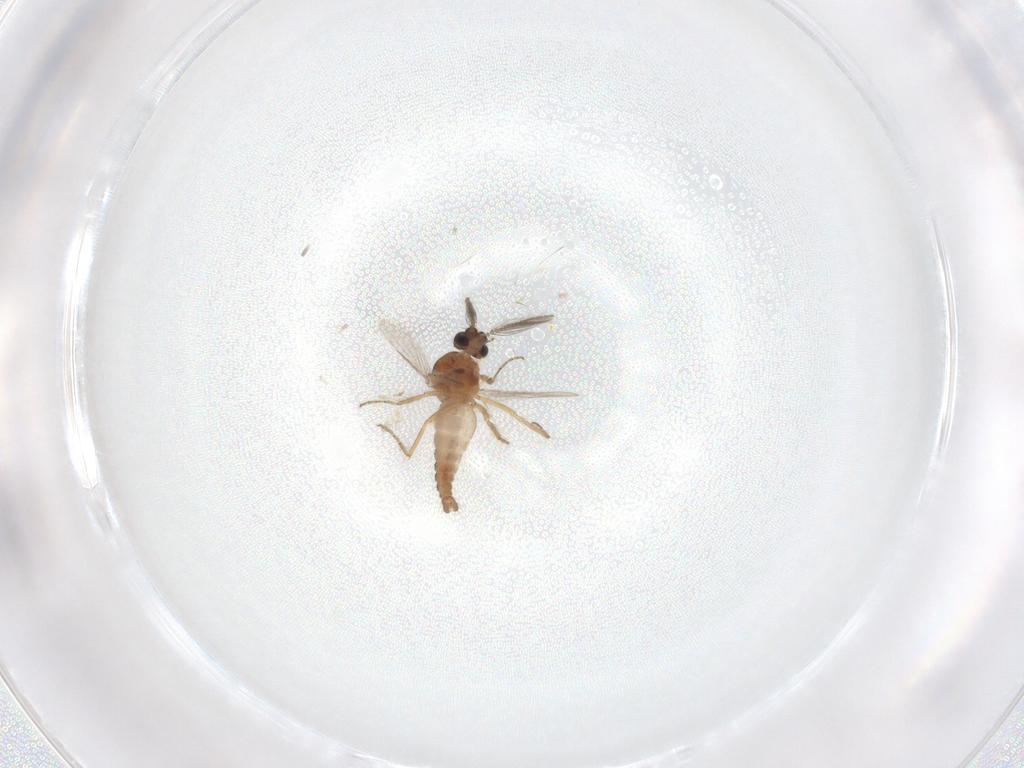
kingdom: Animalia
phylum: Arthropoda
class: Insecta
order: Diptera
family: Ceratopogonidae
